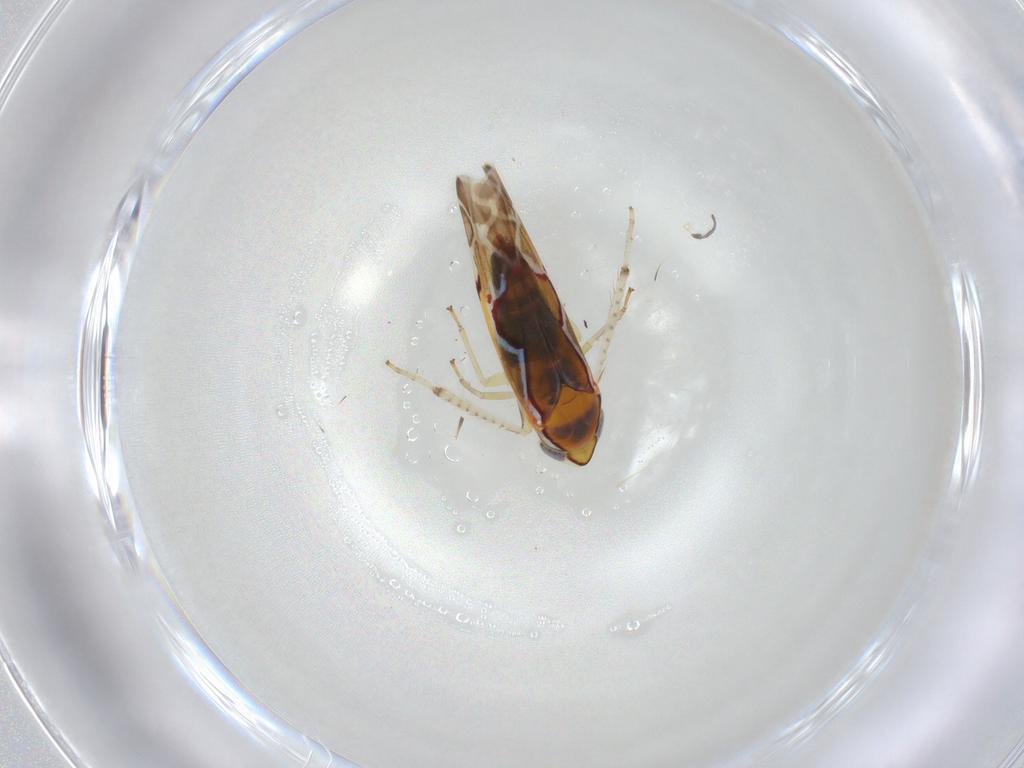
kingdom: Animalia
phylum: Arthropoda
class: Insecta
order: Hemiptera
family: Cicadellidae
